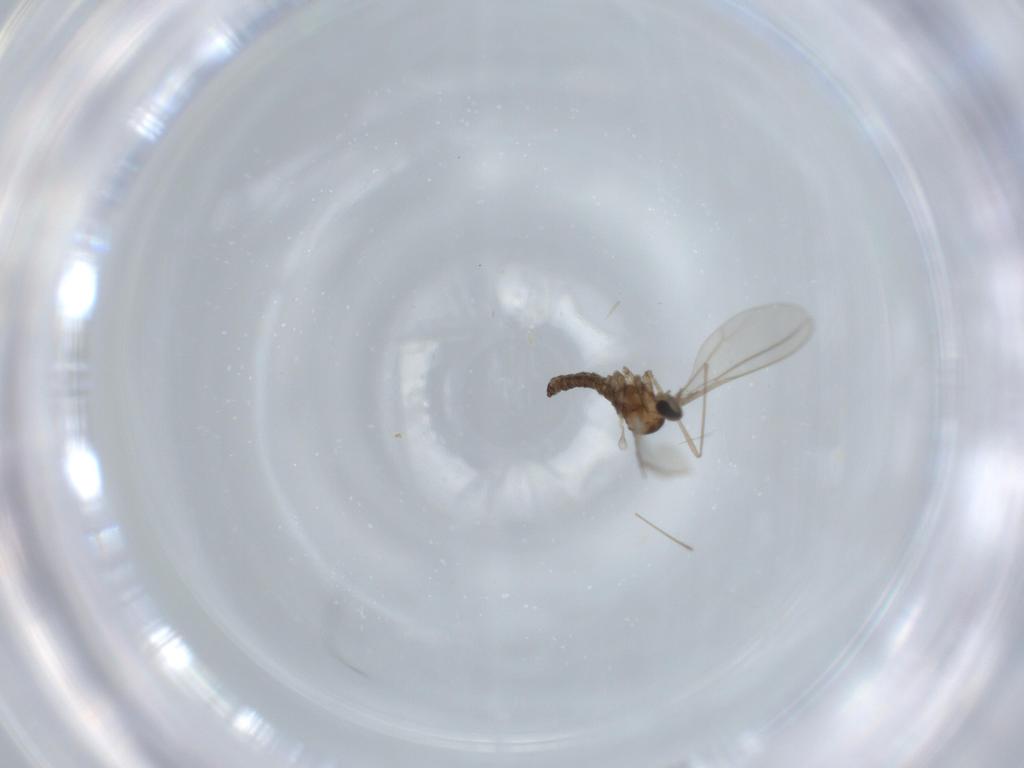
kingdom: Animalia
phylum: Arthropoda
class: Insecta
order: Diptera
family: Cecidomyiidae
